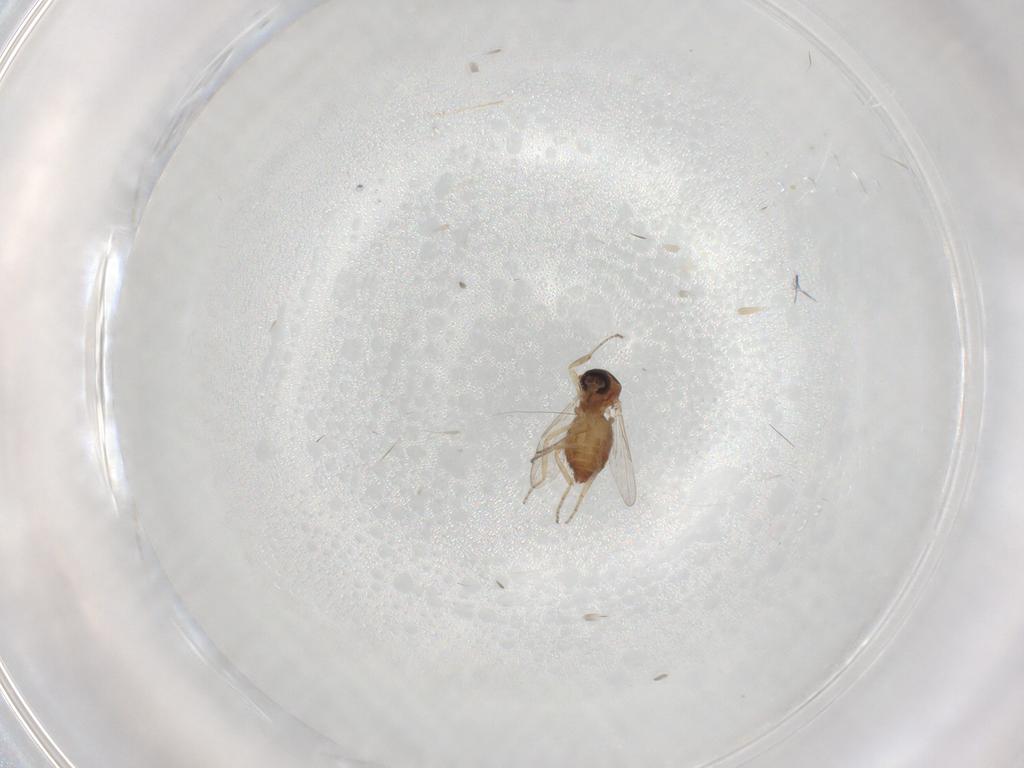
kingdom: Animalia
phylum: Arthropoda
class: Insecta
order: Diptera
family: Ceratopogonidae
